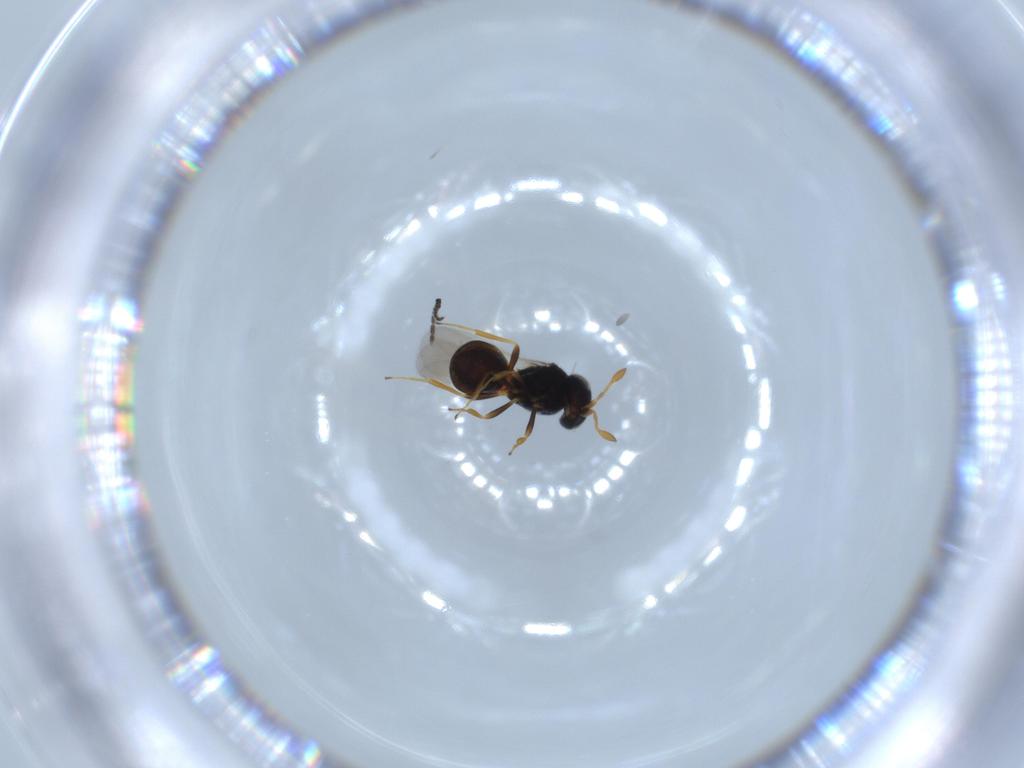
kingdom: Animalia
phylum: Arthropoda
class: Insecta
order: Hymenoptera
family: Scelionidae
